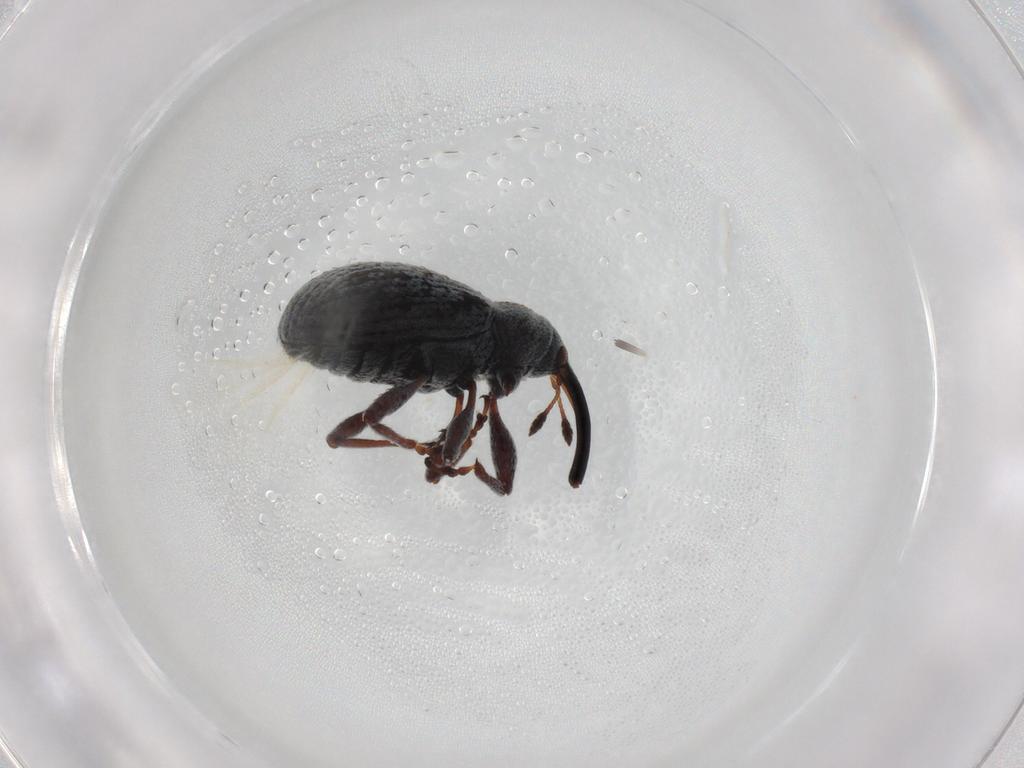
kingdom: Animalia
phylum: Arthropoda
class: Insecta
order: Coleoptera
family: Curculionidae
